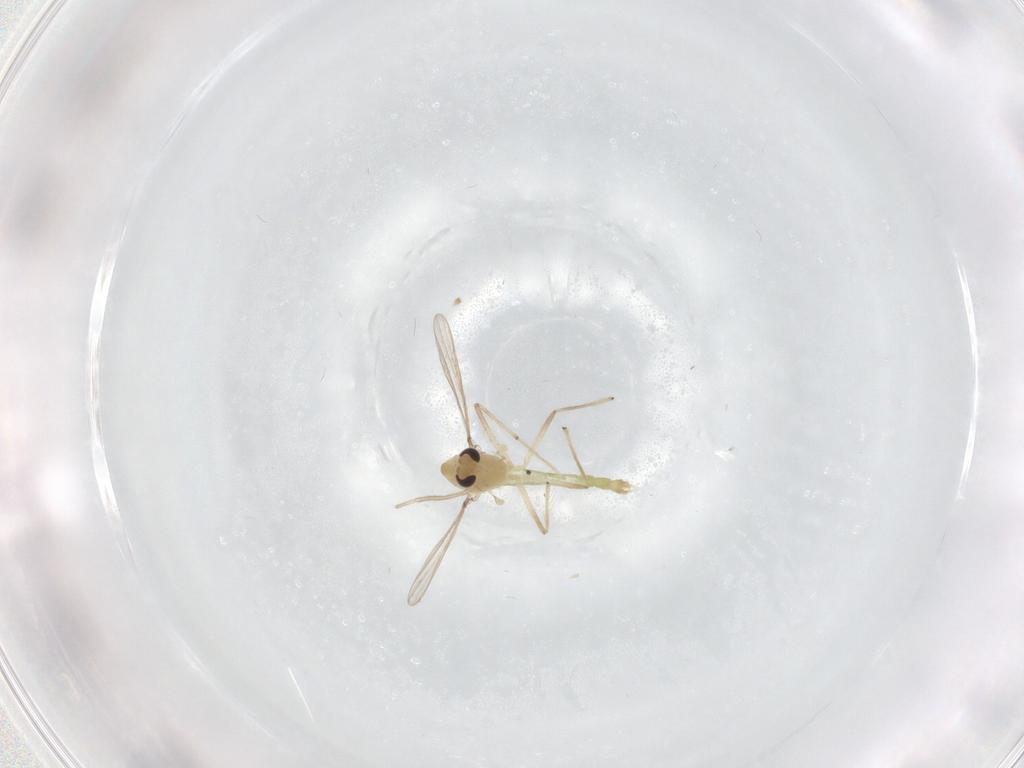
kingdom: Animalia
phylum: Arthropoda
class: Insecta
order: Diptera
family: Chironomidae
